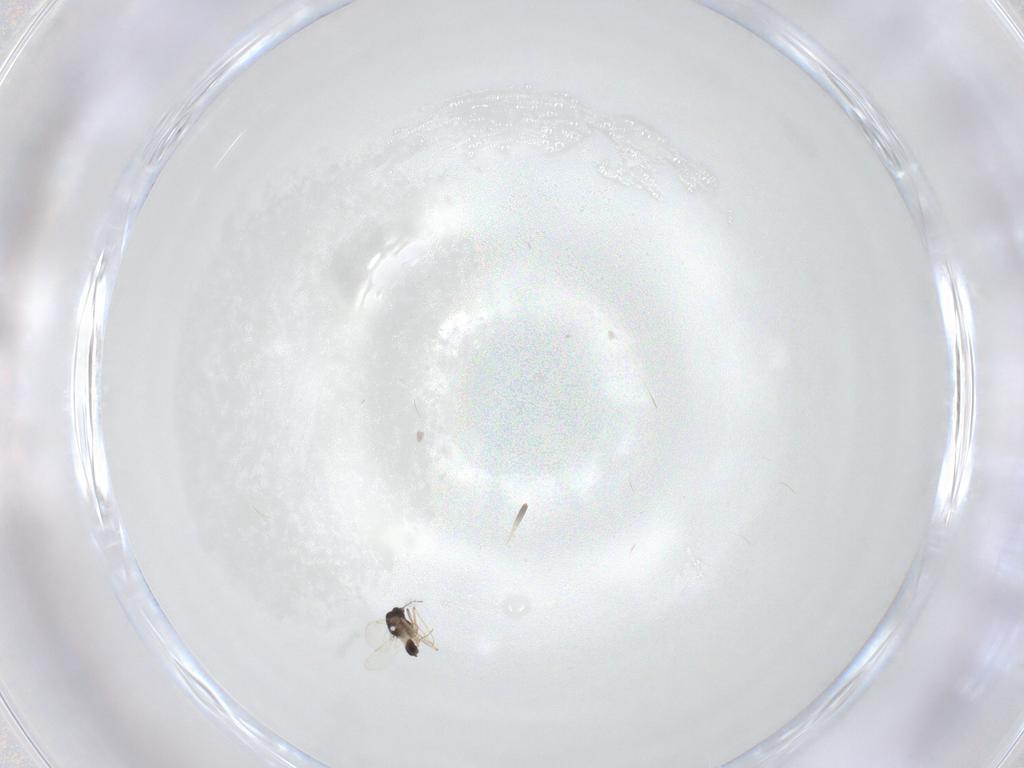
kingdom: Animalia
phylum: Arthropoda
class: Insecta
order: Diptera
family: Ceratopogonidae
